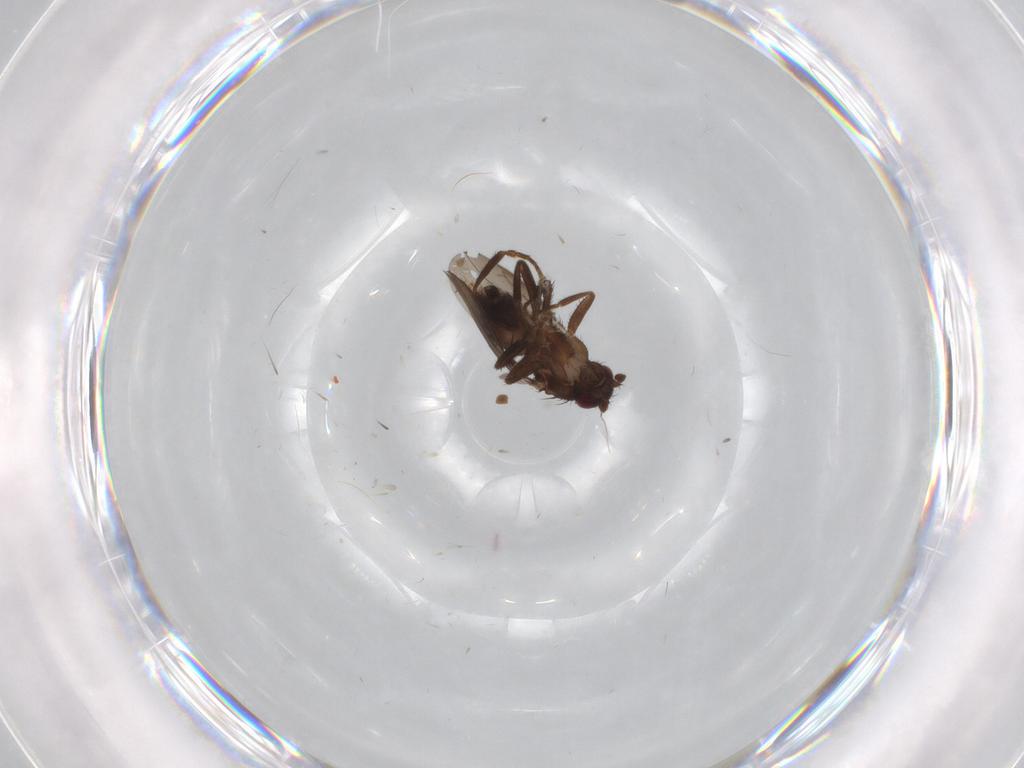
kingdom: Animalia
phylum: Arthropoda
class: Insecta
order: Diptera
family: Sphaeroceridae
